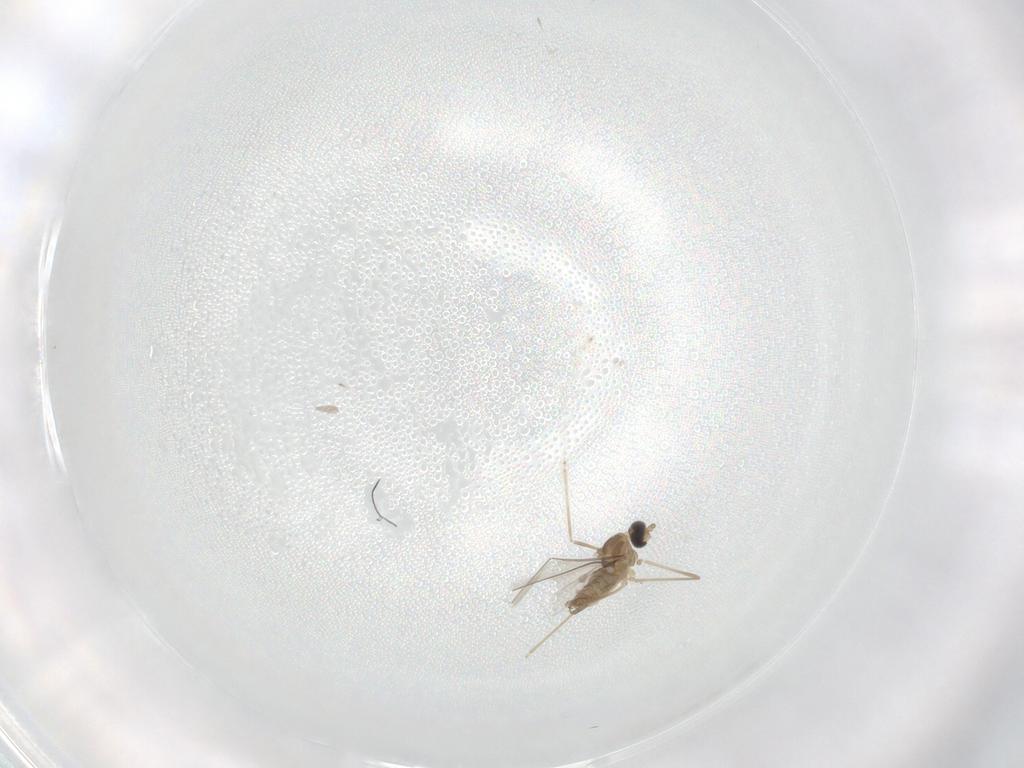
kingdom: Animalia
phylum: Arthropoda
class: Insecta
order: Diptera
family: Cecidomyiidae
